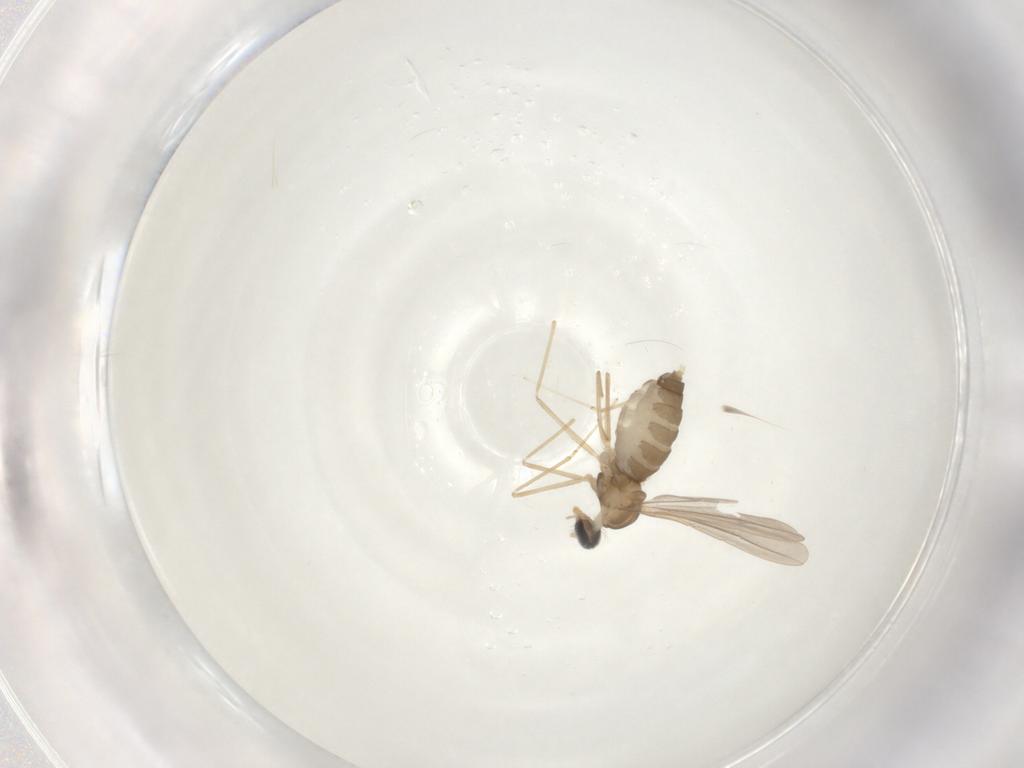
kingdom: Animalia
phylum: Arthropoda
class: Insecta
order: Diptera
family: Cecidomyiidae
